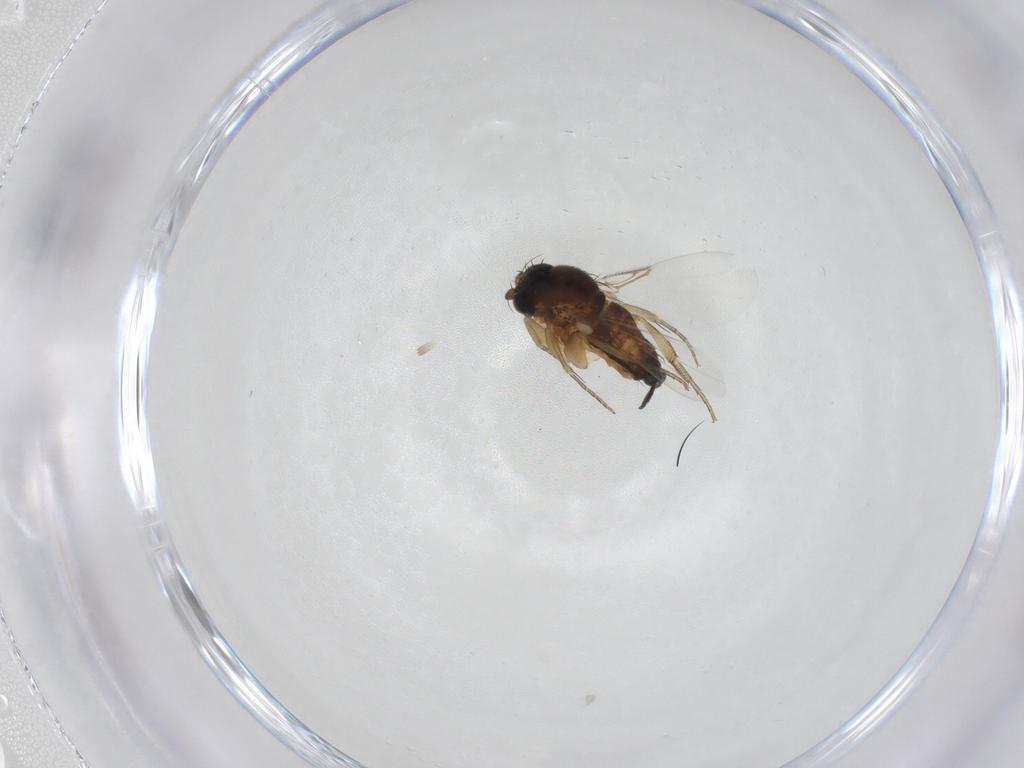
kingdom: Animalia
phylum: Arthropoda
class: Insecta
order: Diptera
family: Phoridae
